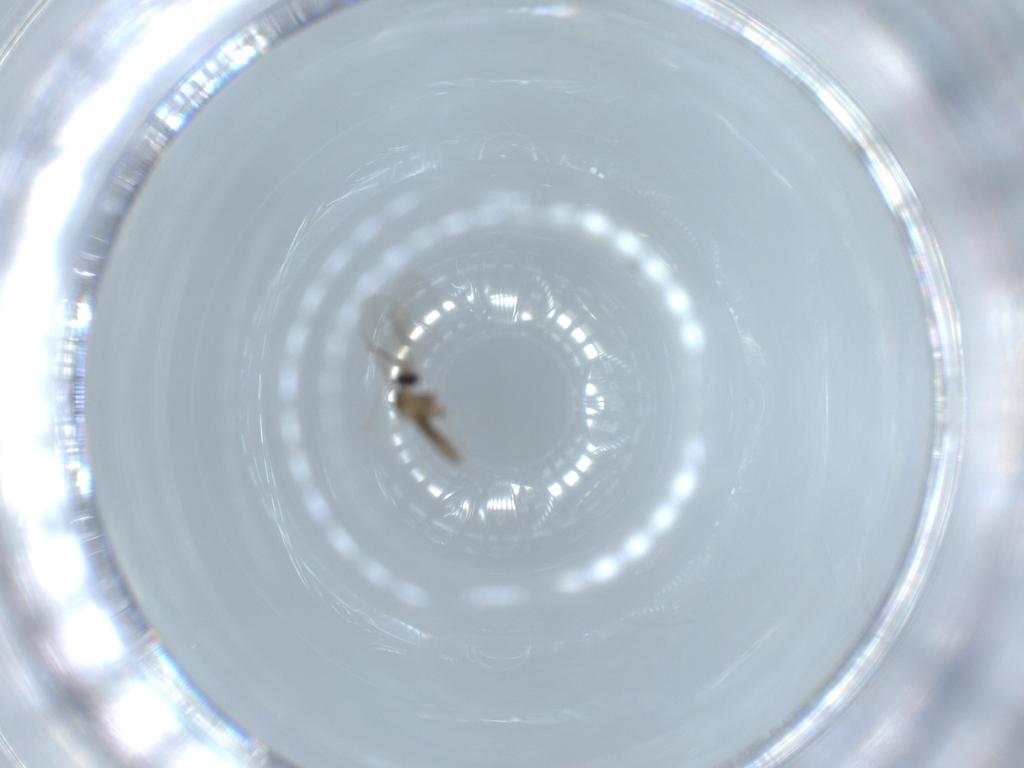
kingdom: Animalia
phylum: Arthropoda
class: Insecta
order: Diptera
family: Cecidomyiidae
